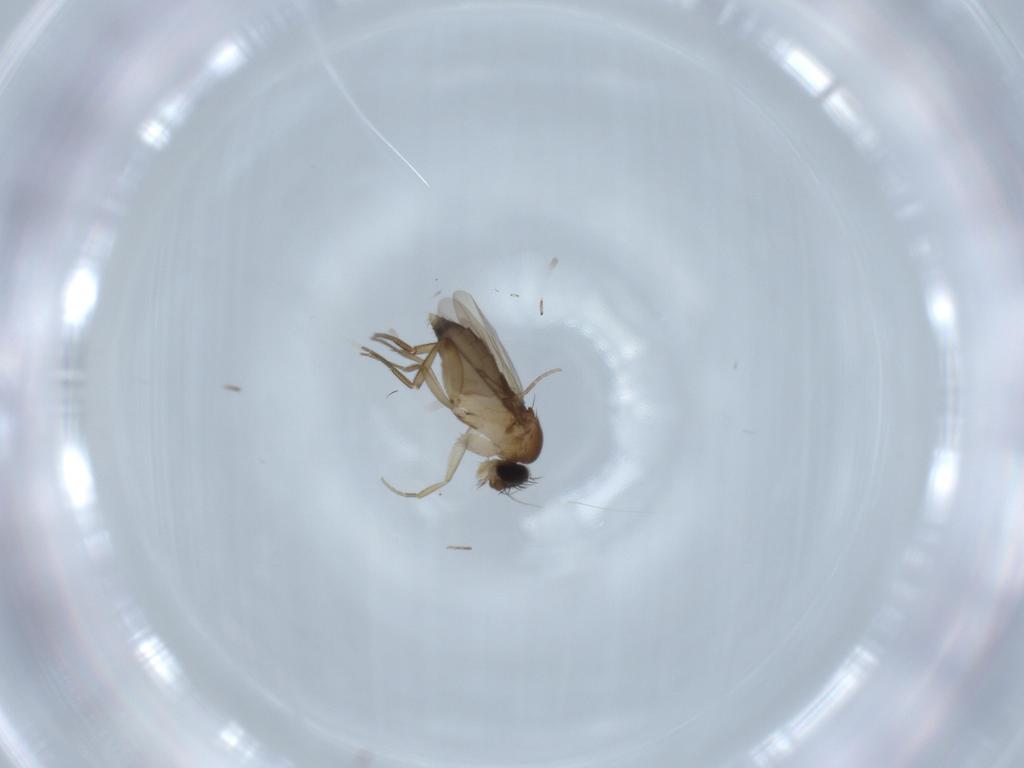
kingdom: Animalia
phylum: Arthropoda
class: Insecta
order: Diptera
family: Phoridae
